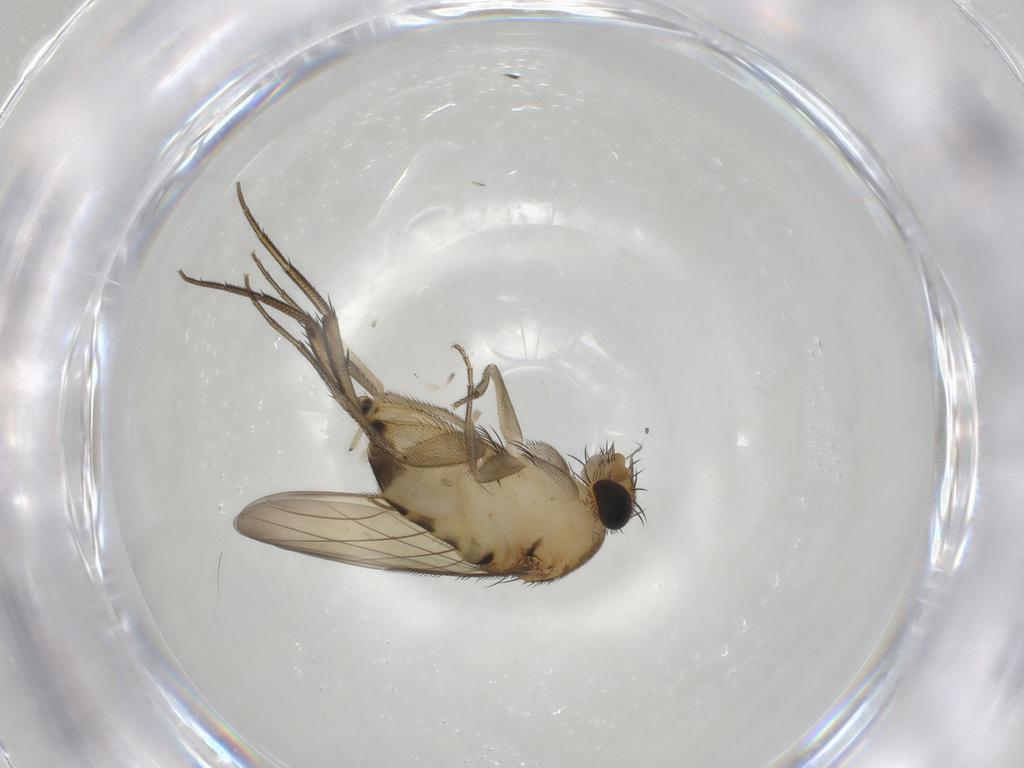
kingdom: Animalia
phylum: Arthropoda
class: Insecta
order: Diptera
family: Phoridae
